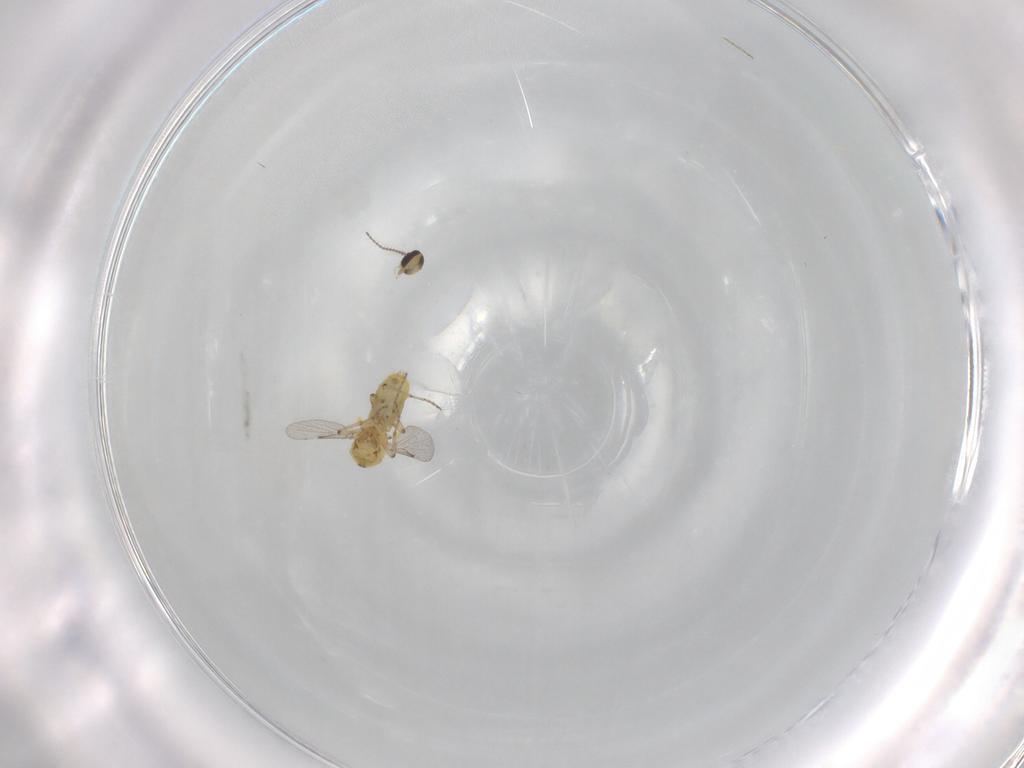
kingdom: Animalia
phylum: Arthropoda
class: Insecta
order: Diptera
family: Ceratopogonidae
